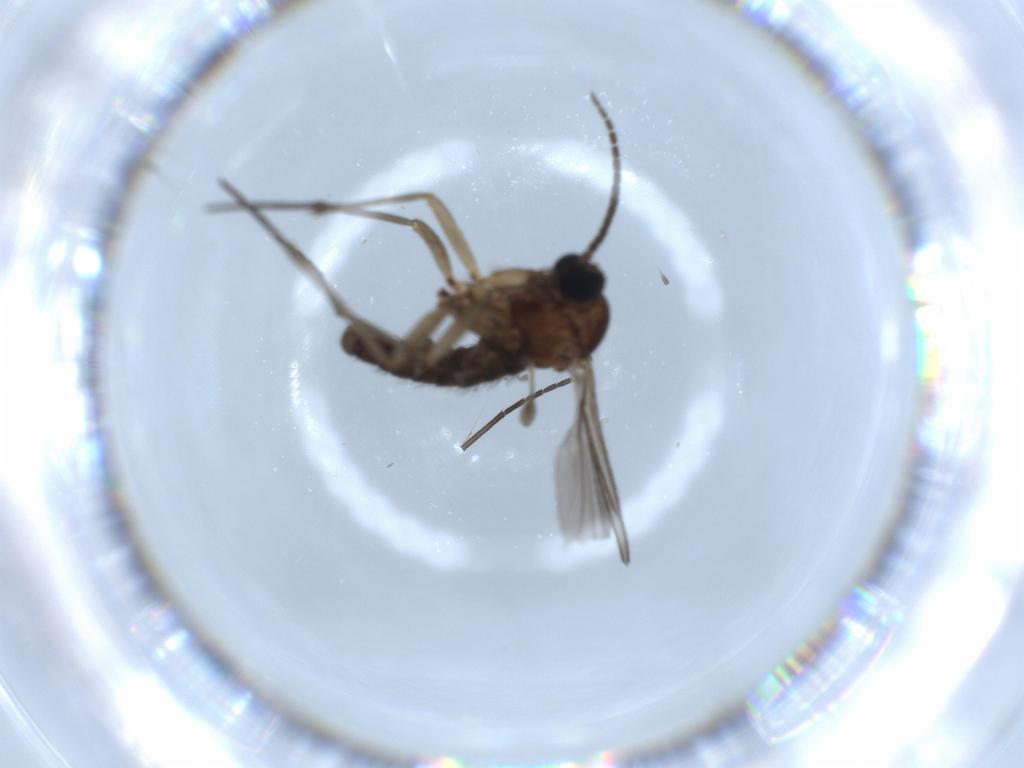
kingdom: Animalia
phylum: Arthropoda
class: Insecta
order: Diptera
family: Sciaridae
